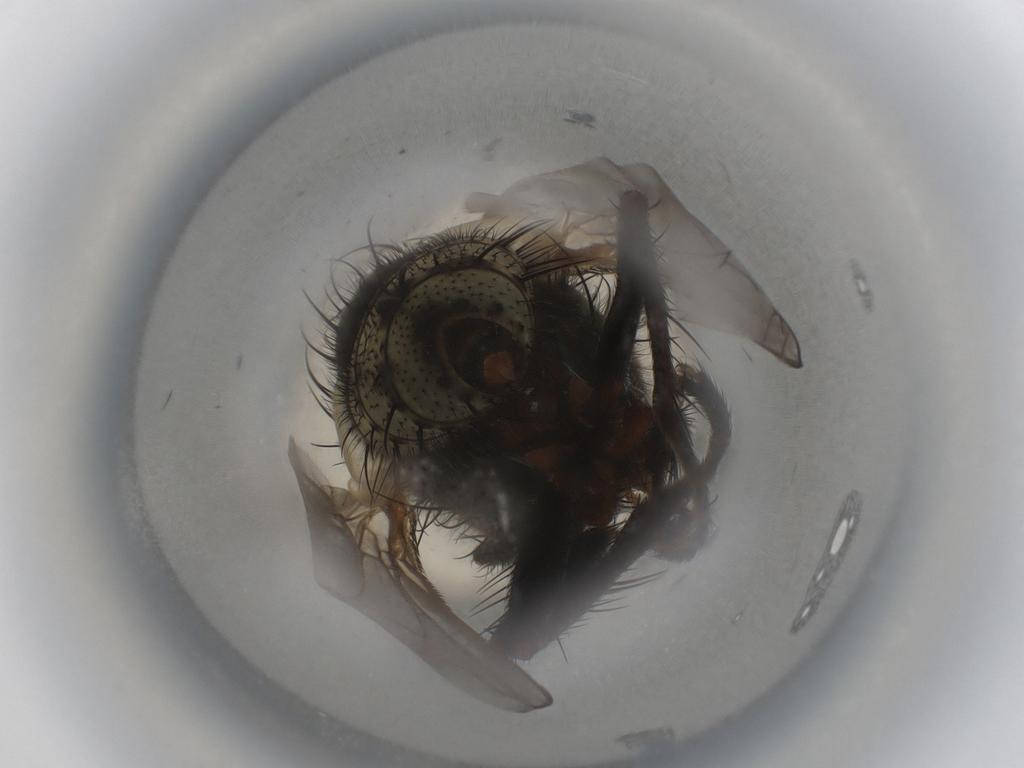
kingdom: Animalia
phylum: Arthropoda
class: Insecta
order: Diptera
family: Sarcophagidae
